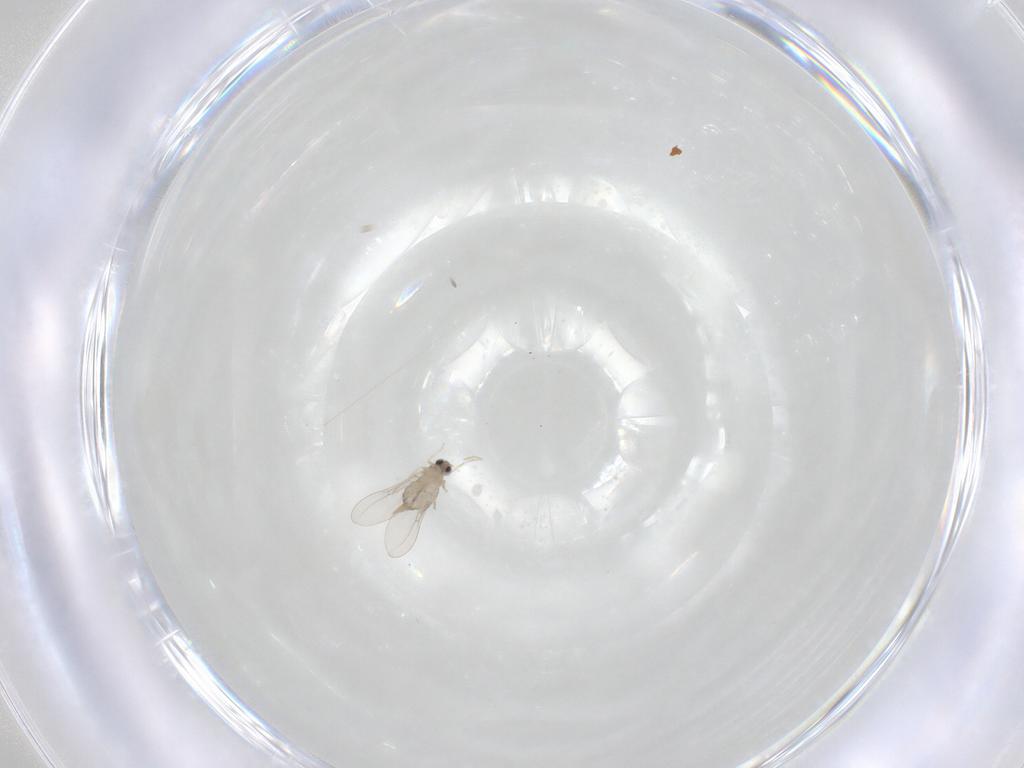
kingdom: Animalia
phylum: Arthropoda
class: Insecta
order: Diptera
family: Cecidomyiidae
